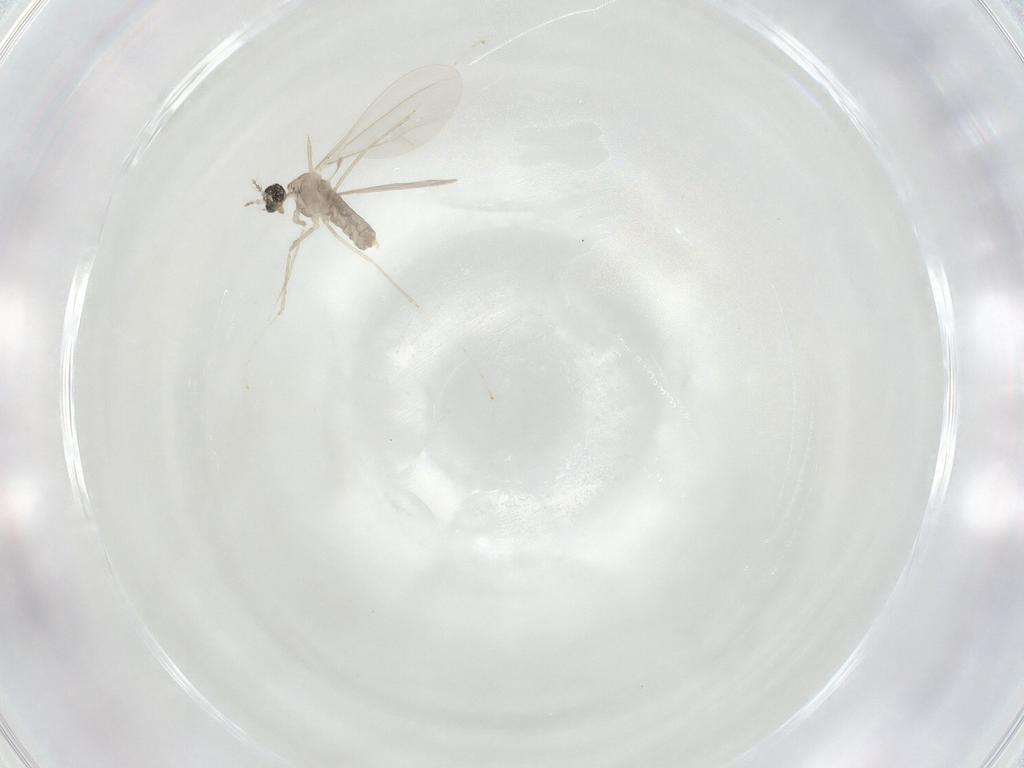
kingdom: Animalia
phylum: Arthropoda
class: Insecta
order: Diptera
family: Cecidomyiidae
